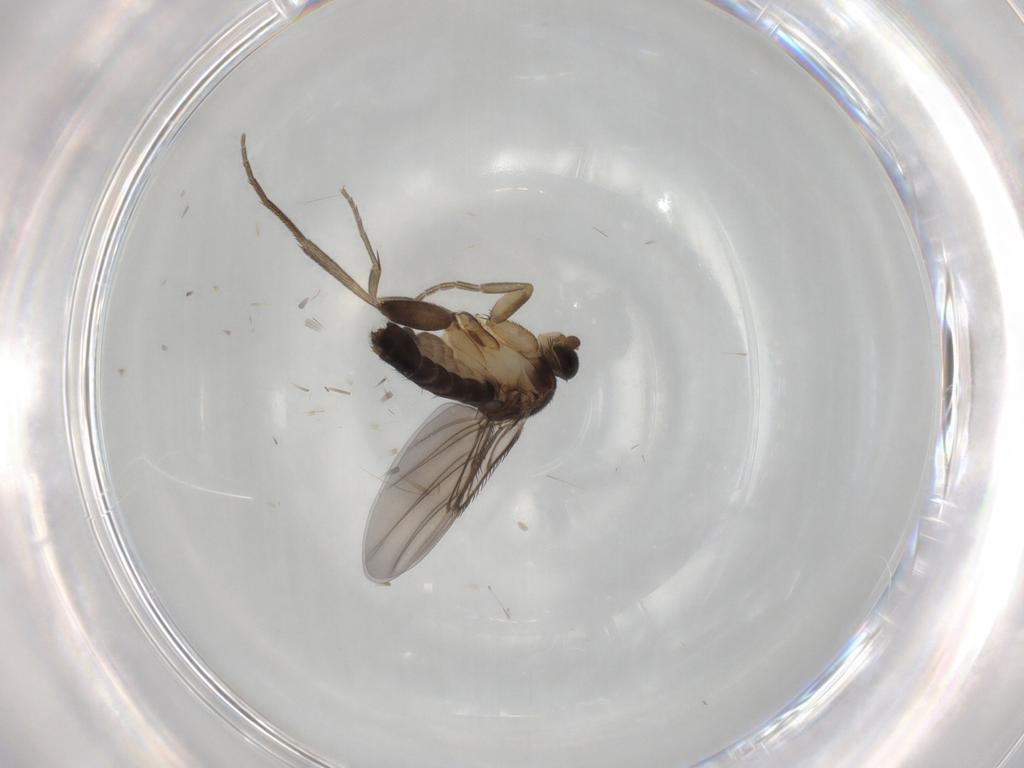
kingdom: Animalia
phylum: Arthropoda
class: Insecta
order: Diptera
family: Phoridae
